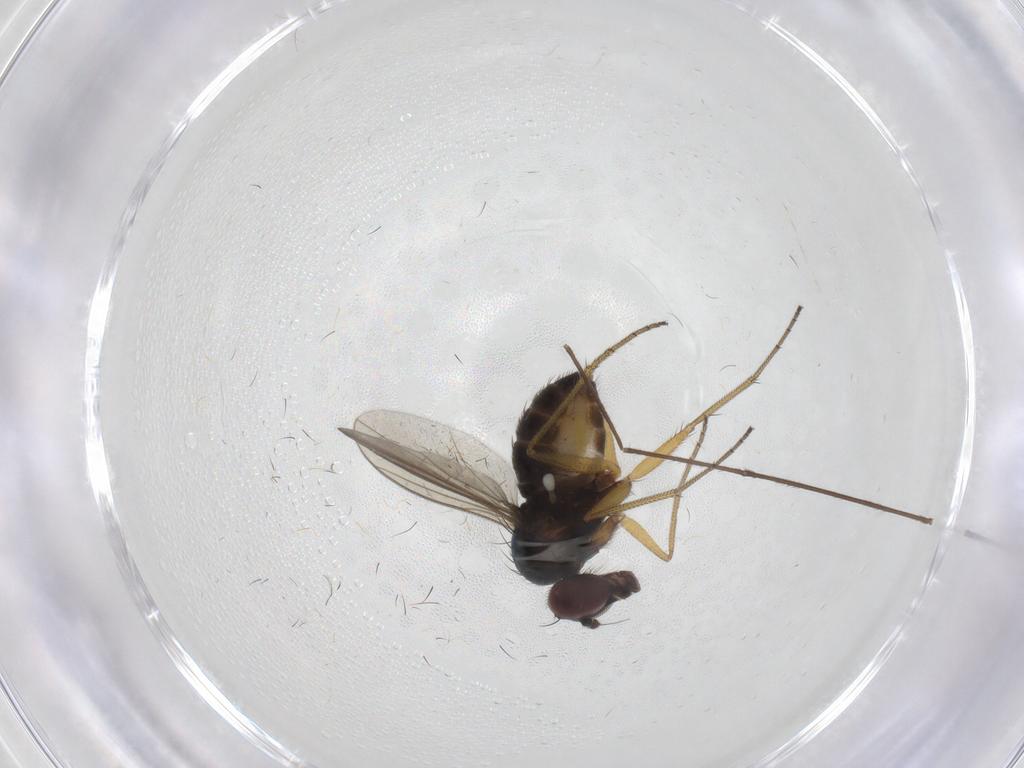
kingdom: Animalia
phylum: Arthropoda
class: Insecta
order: Diptera
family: Dolichopodidae
